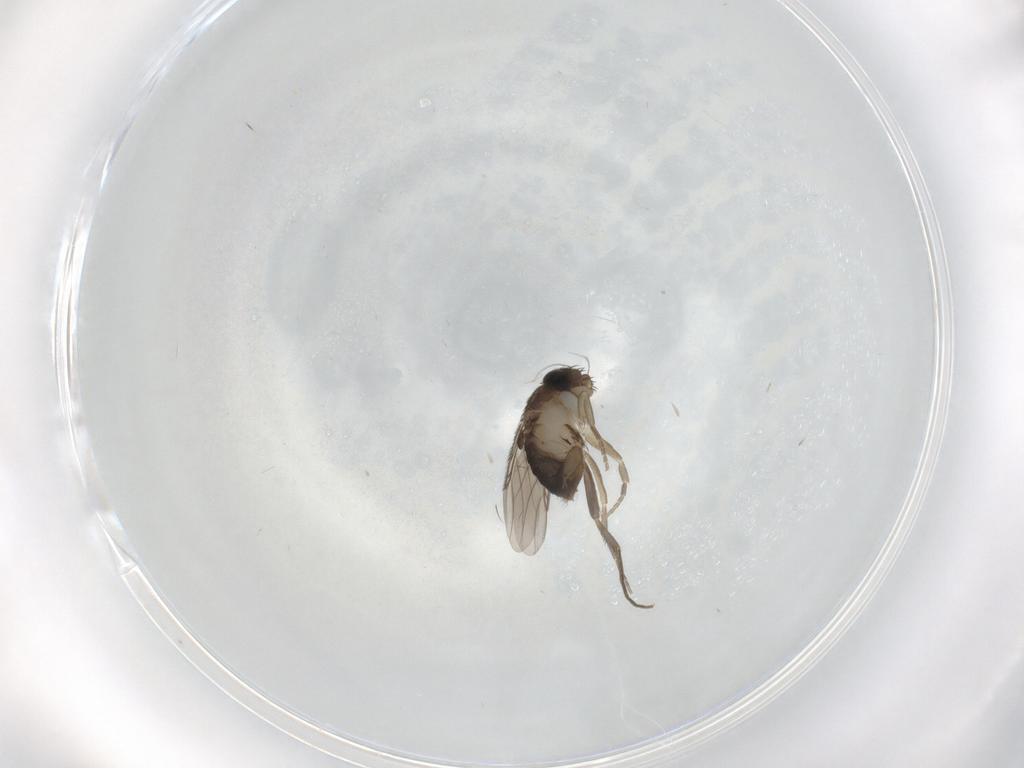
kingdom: Animalia
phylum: Arthropoda
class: Insecta
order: Diptera
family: Phoridae
